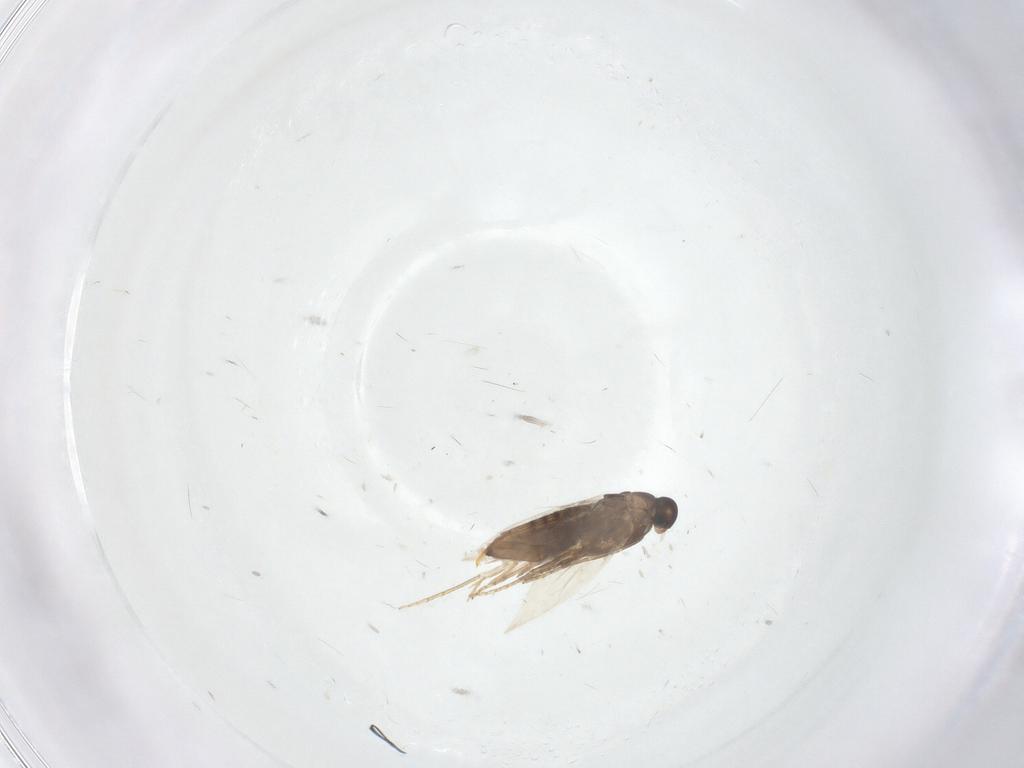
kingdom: Animalia
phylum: Arthropoda
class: Insecta
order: Lepidoptera
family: Heliozelidae
